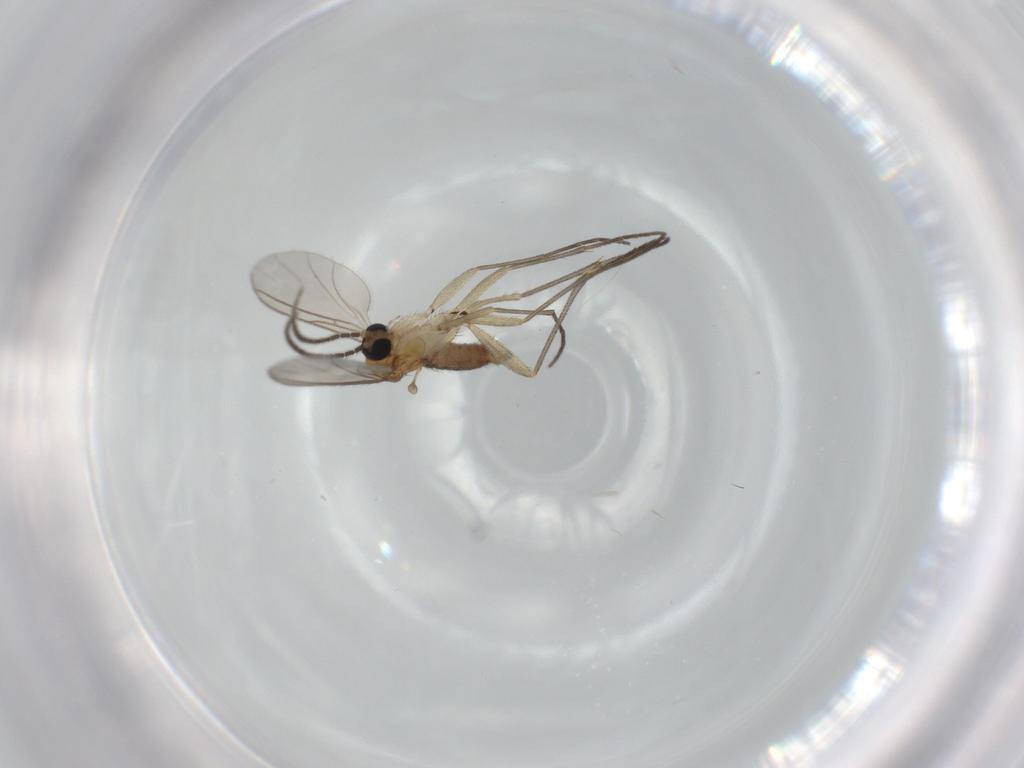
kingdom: Animalia
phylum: Arthropoda
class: Insecta
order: Diptera
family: Sciaridae
